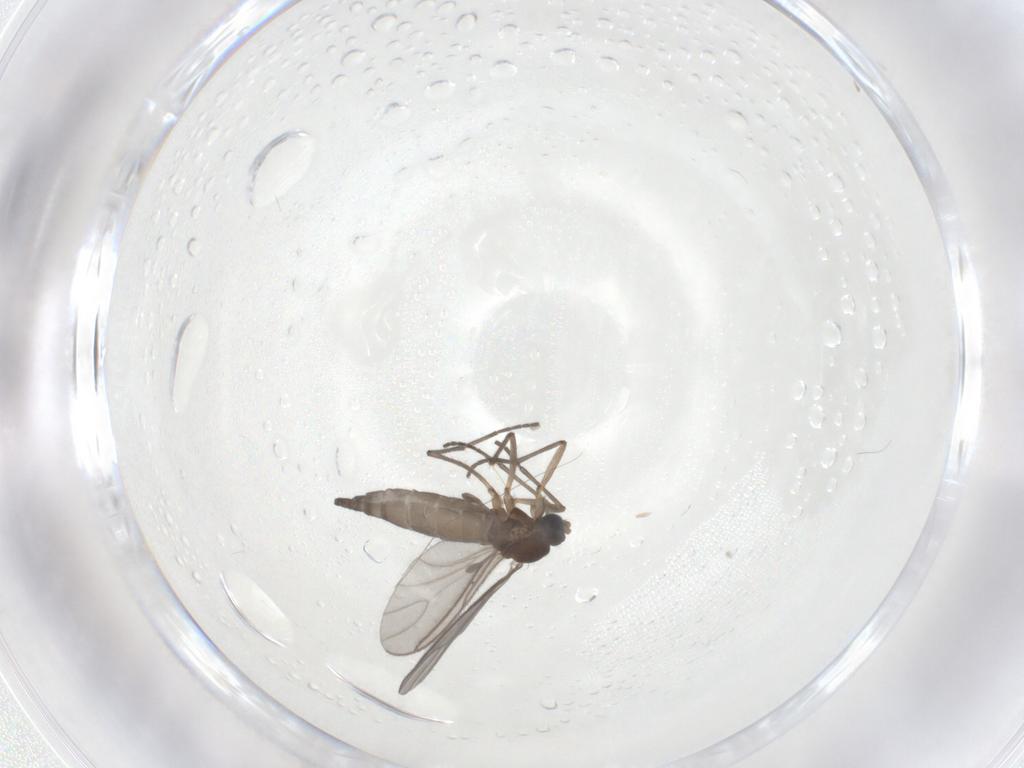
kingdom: Animalia
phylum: Arthropoda
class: Insecta
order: Diptera
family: Sciaridae
